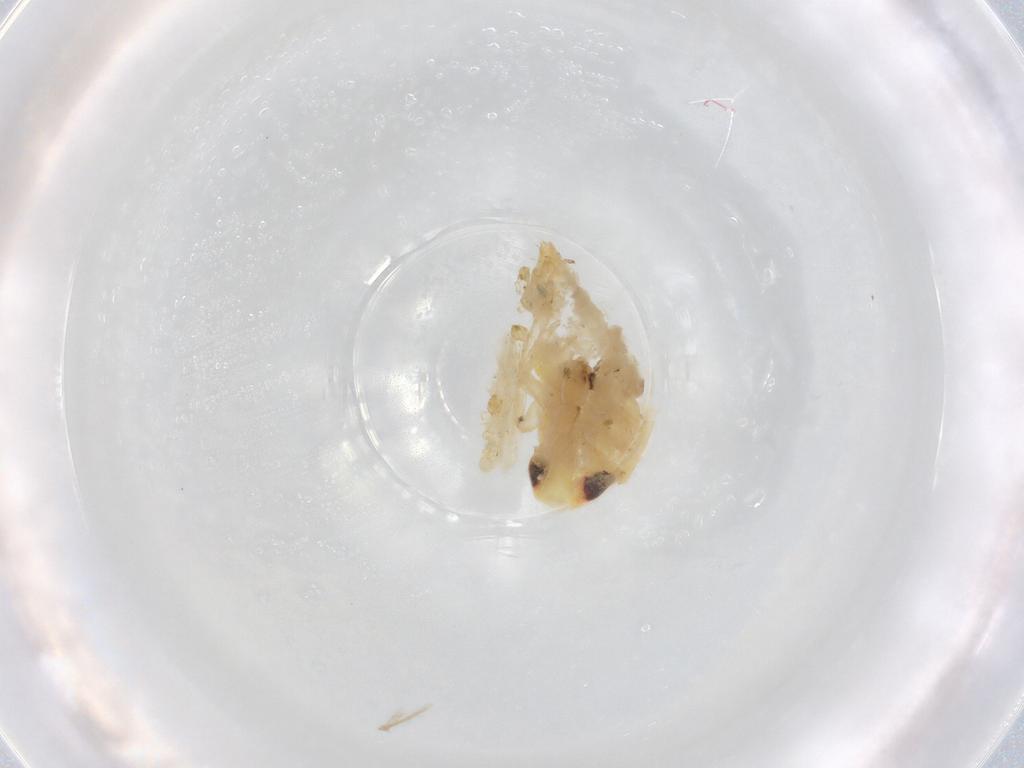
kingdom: Animalia
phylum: Arthropoda
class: Insecta
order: Hemiptera
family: Cicadellidae
